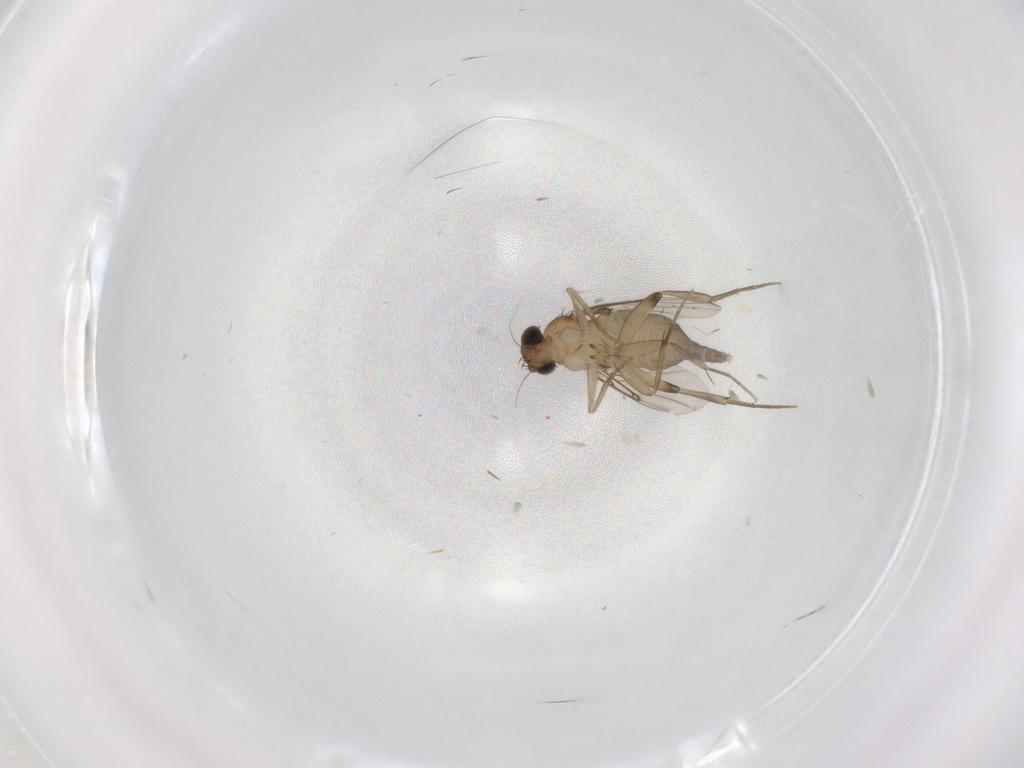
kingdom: Animalia
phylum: Arthropoda
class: Insecta
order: Diptera
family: Phoridae
